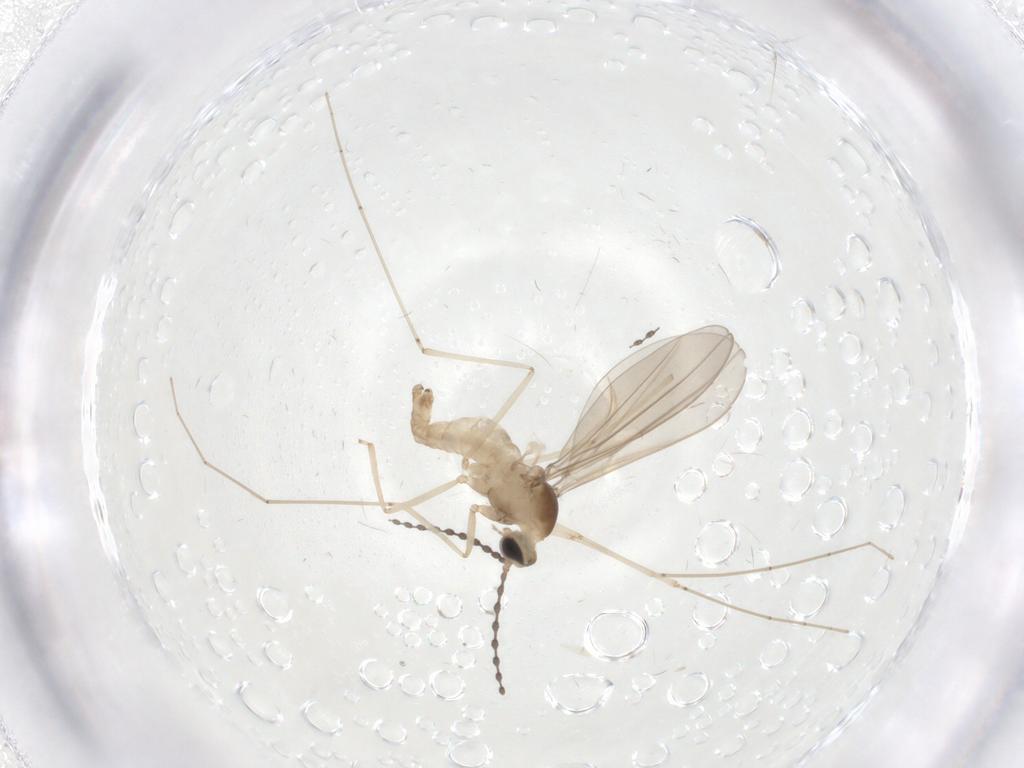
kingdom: Animalia
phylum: Arthropoda
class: Insecta
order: Diptera
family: Cecidomyiidae
